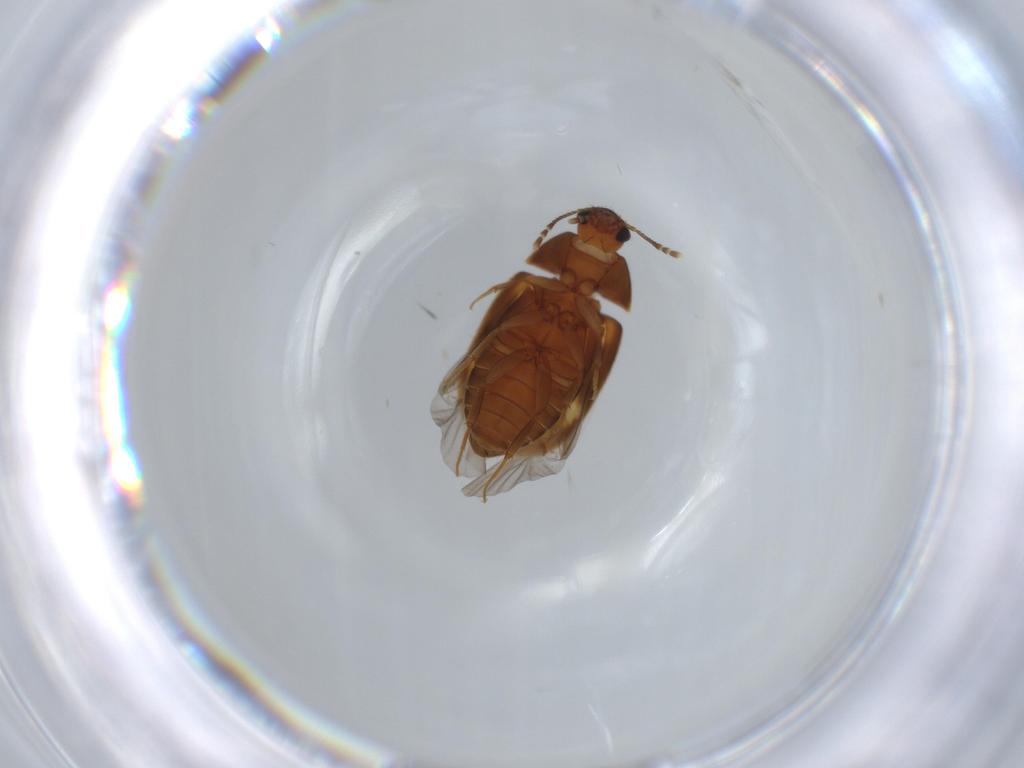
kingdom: Animalia
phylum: Arthropoda
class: Insecta
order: Coleoptera
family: Mycetophagidae
